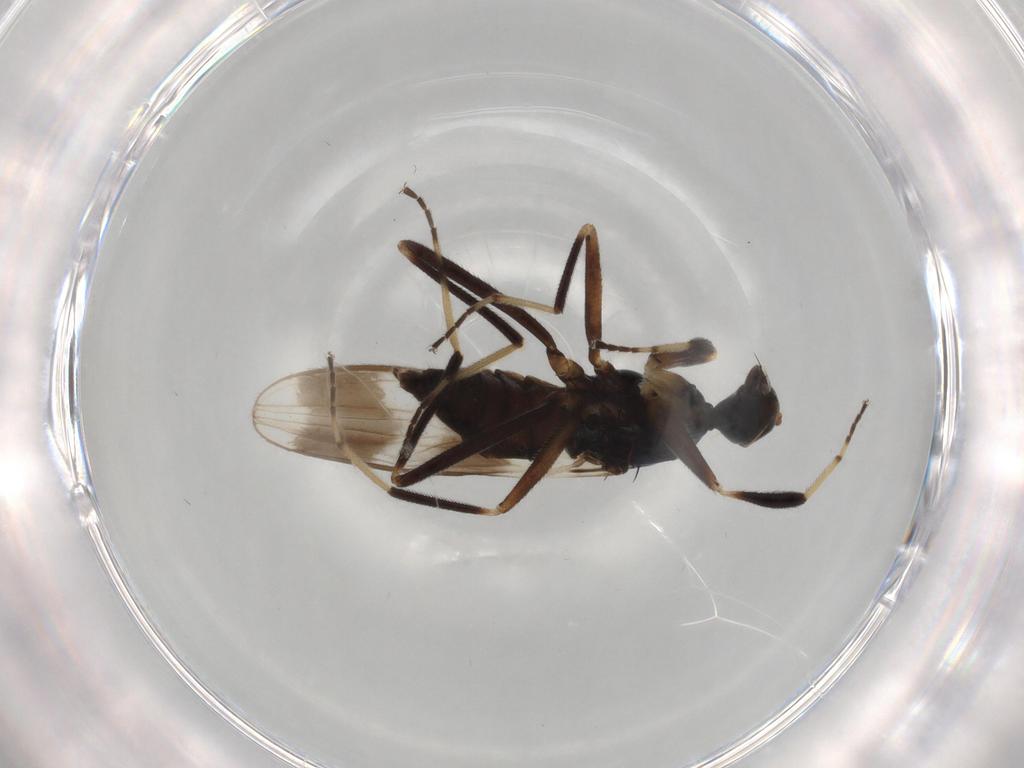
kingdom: Animalia
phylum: Arthropoda
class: Insecta
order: Diptera
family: Hybotidae
